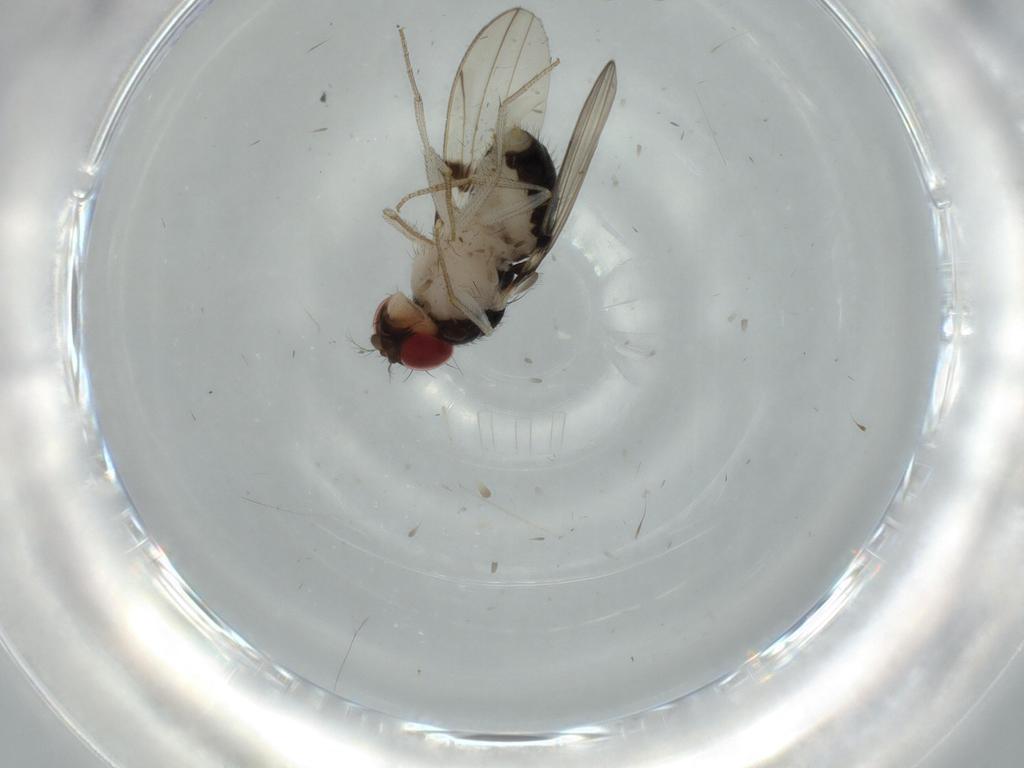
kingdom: Animalia
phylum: Arthropoda
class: Insecta
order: Diptera
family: Drosophilidae
